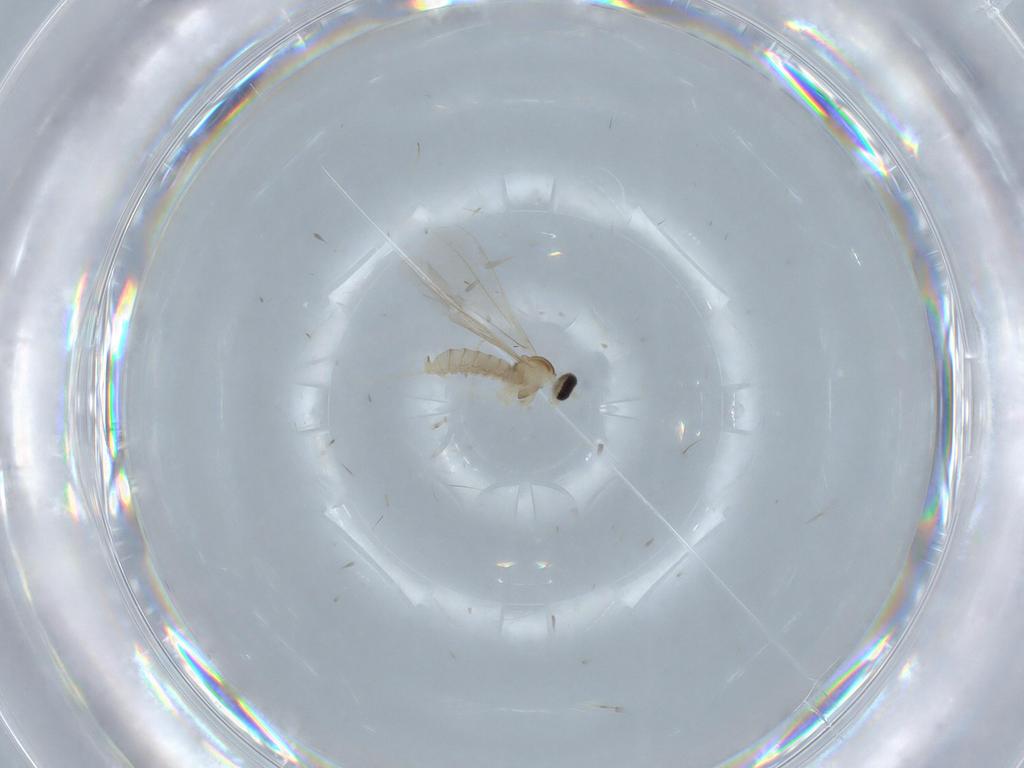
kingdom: Animalia
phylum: Arthropoda
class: Insecta
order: Diptera
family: Cecidomyiidae
